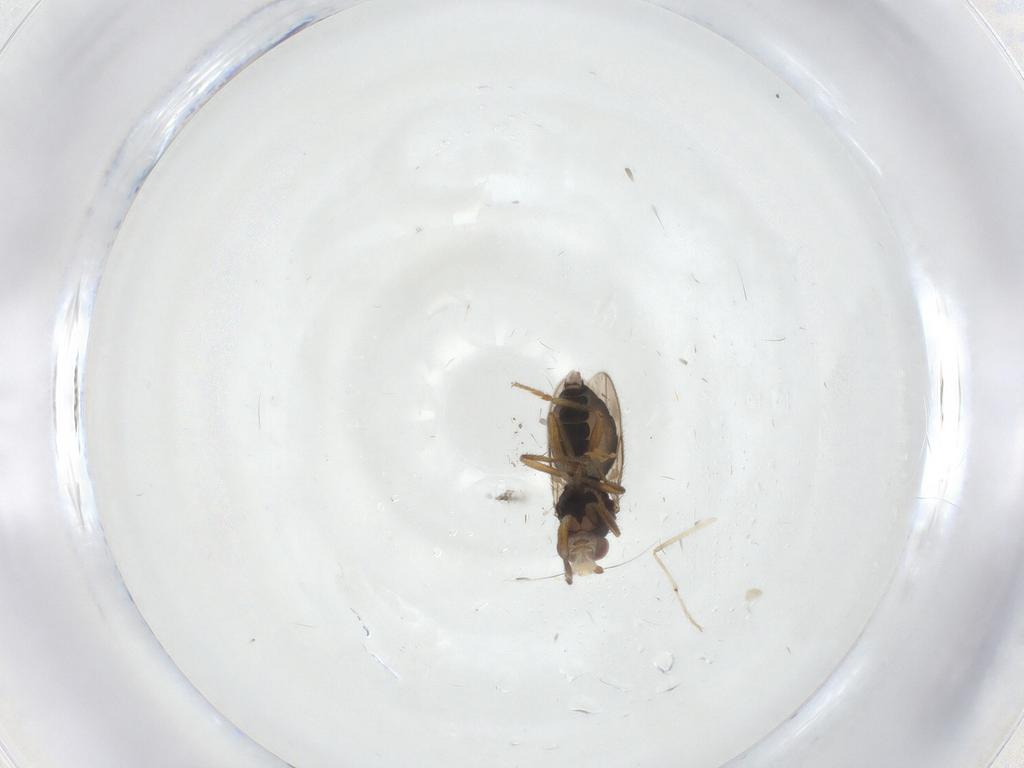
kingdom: Animalia
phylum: Arthropoda
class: Insecta
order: Diptera
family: Sphaeroceridae
